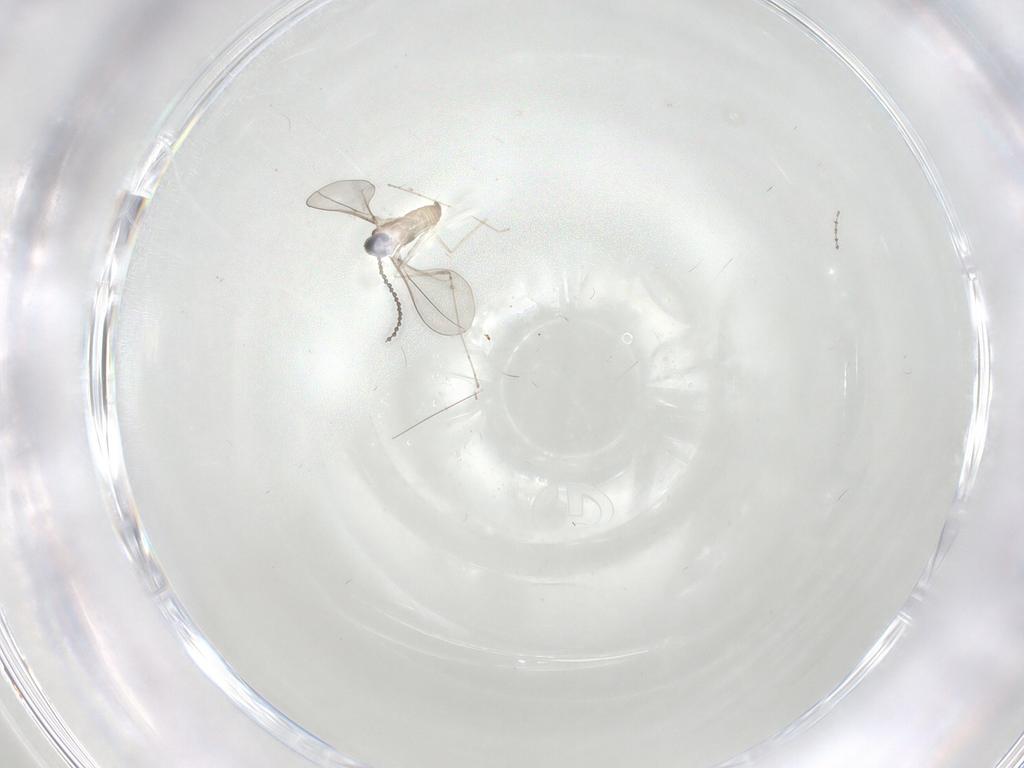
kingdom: Animalia
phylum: Arthropoda
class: Insecta
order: Diptera
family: Cecidomyiidae
